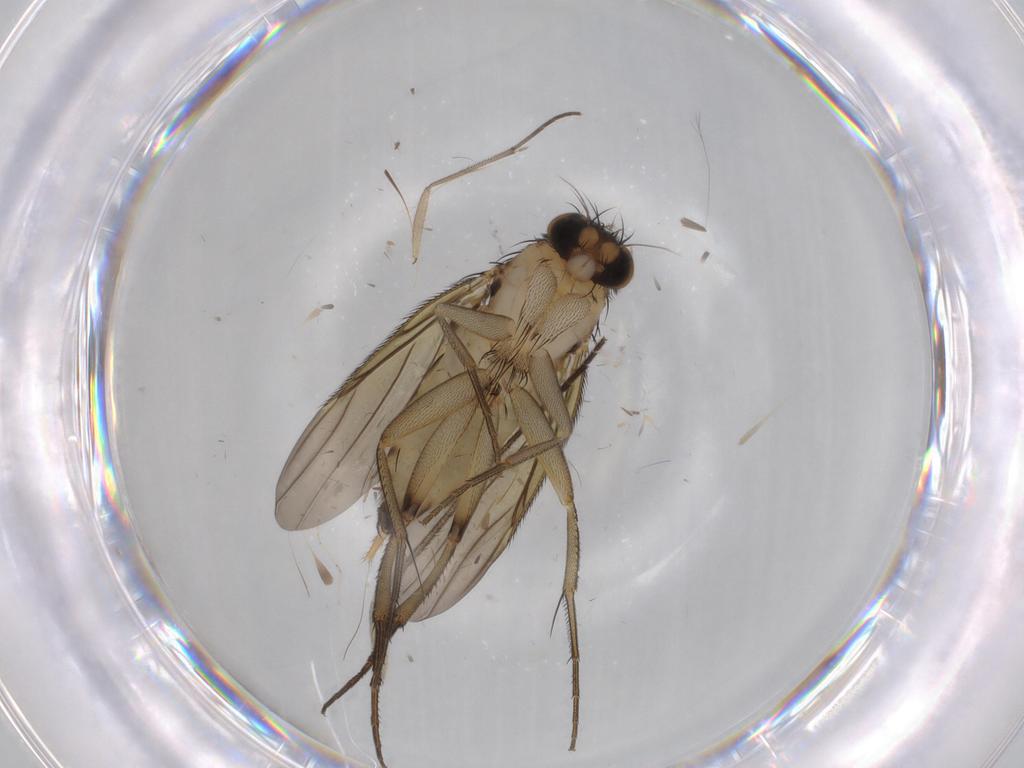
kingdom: Animalia
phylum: Arthropoda
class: Insecta
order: Diptera
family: Sciaridae
